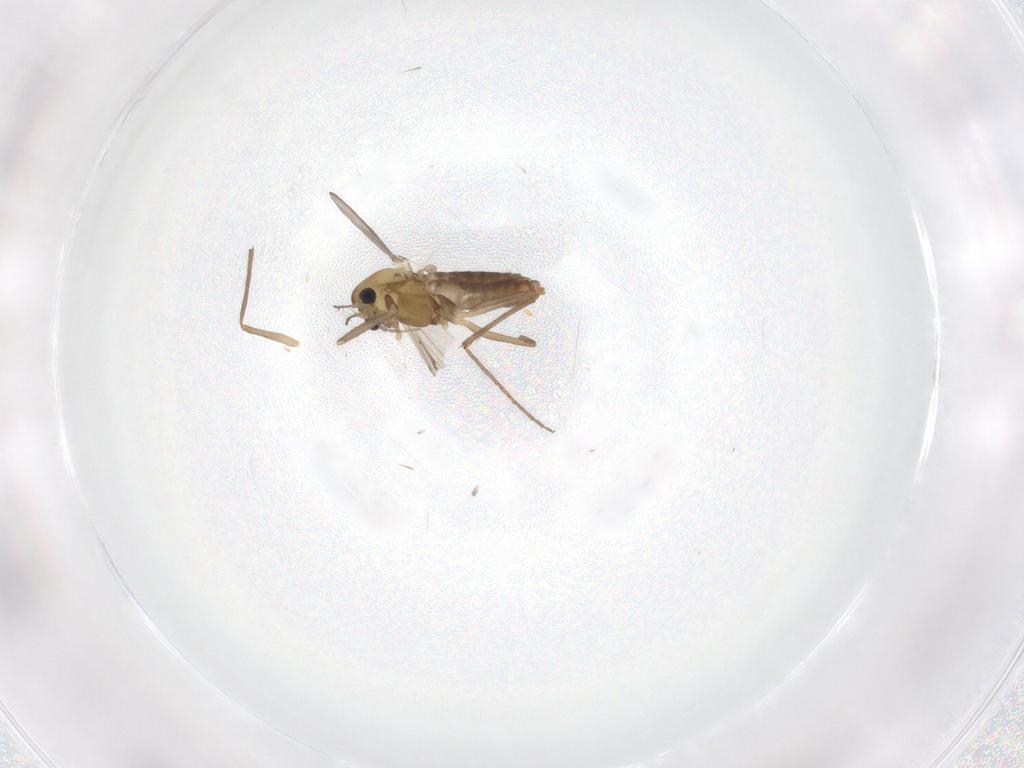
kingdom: Animalia
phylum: Arthropoda
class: Insecta
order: Diptera
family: Chironomidae
